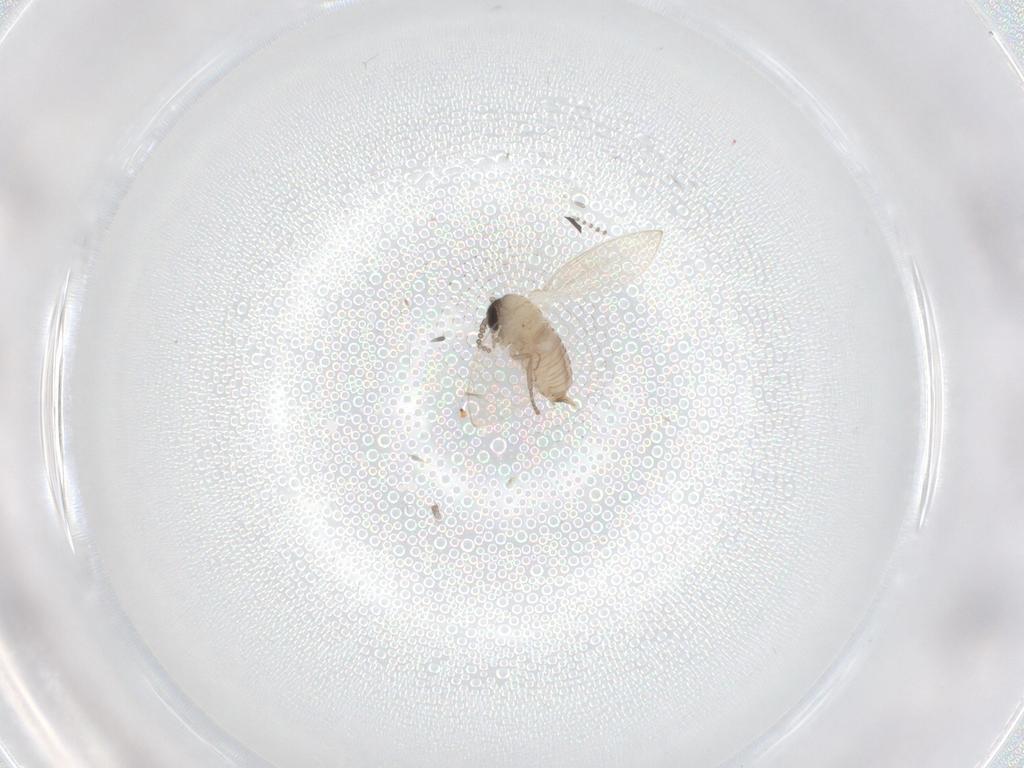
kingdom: Animalia
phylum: Arthropoda
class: Insecta
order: Diptera
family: Psychodidae
